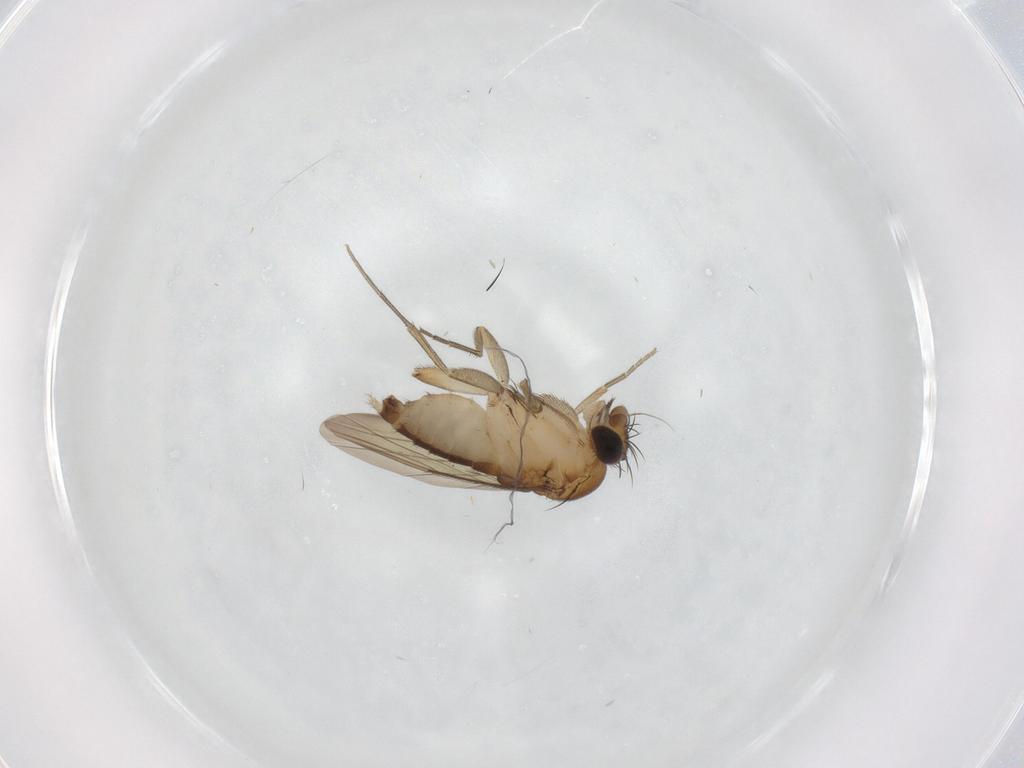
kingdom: Animalia
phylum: Arthropoda
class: Insecta
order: Diptera
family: Phoridae
